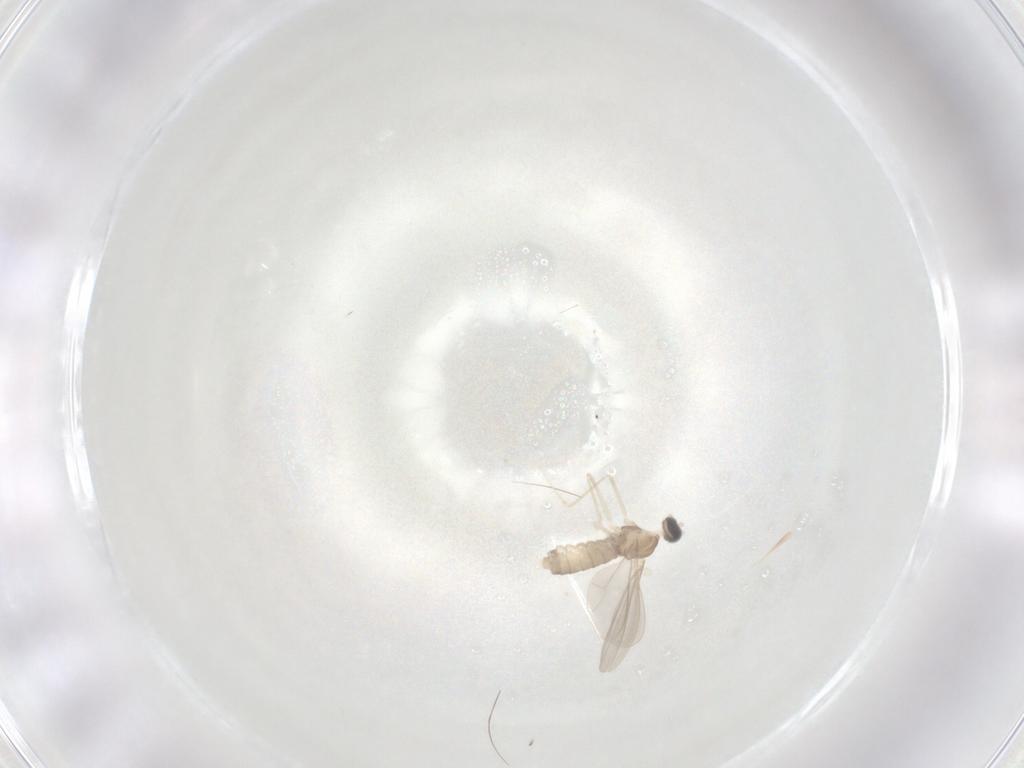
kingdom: Animalia
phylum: Arthropoda
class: Insecta
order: Diptera
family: Cecidomyiidae
